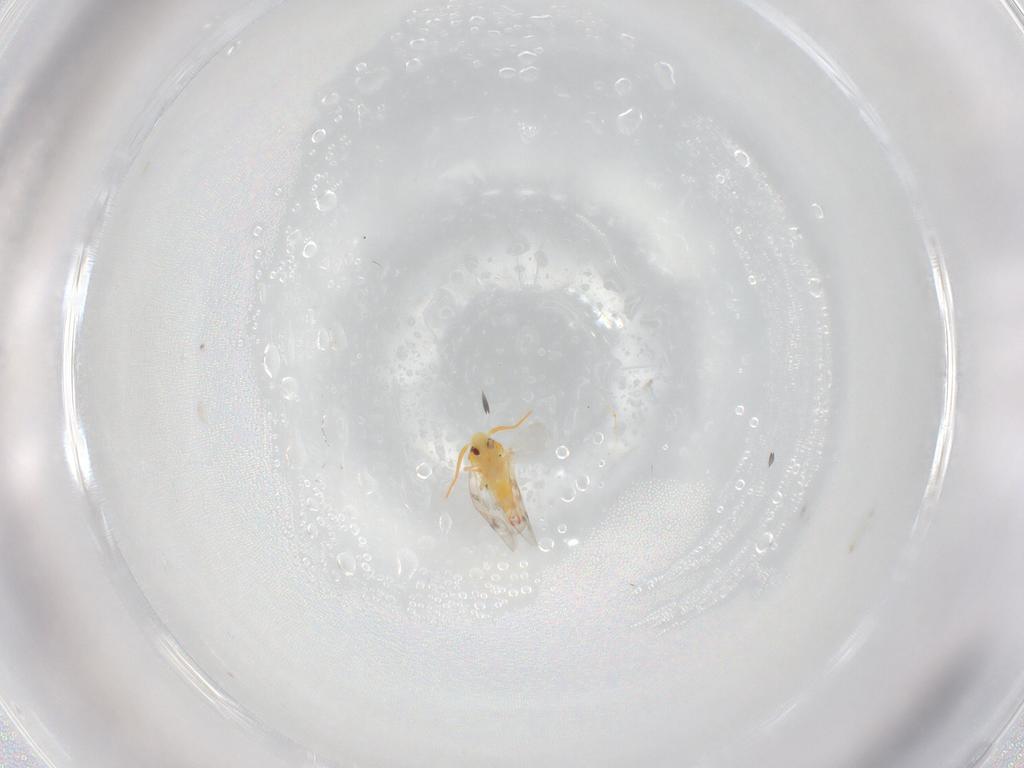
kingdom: Animalia
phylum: Arthropoda
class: Insecta
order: Hemiptera
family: Aleyrodidae
